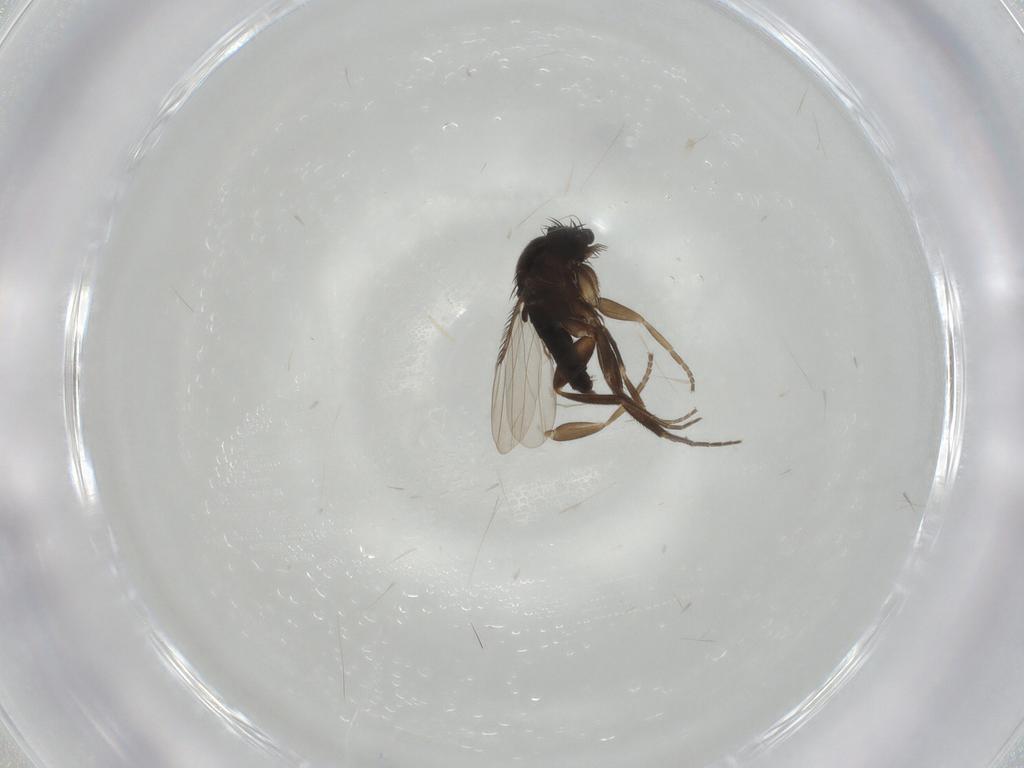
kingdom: Animalia
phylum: Arthropoda
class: Insecta
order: Diptera
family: Phoridae
